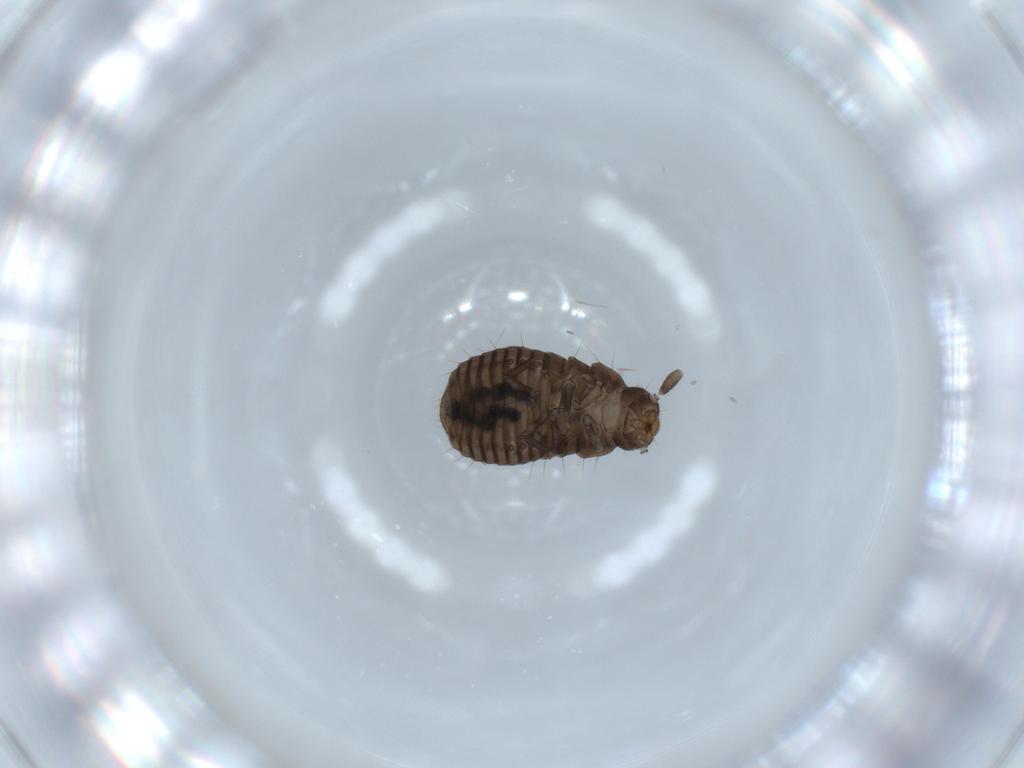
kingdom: Animalia
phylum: Arthropoda
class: Insecta
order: Coleoptera
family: Tenebrionidae
